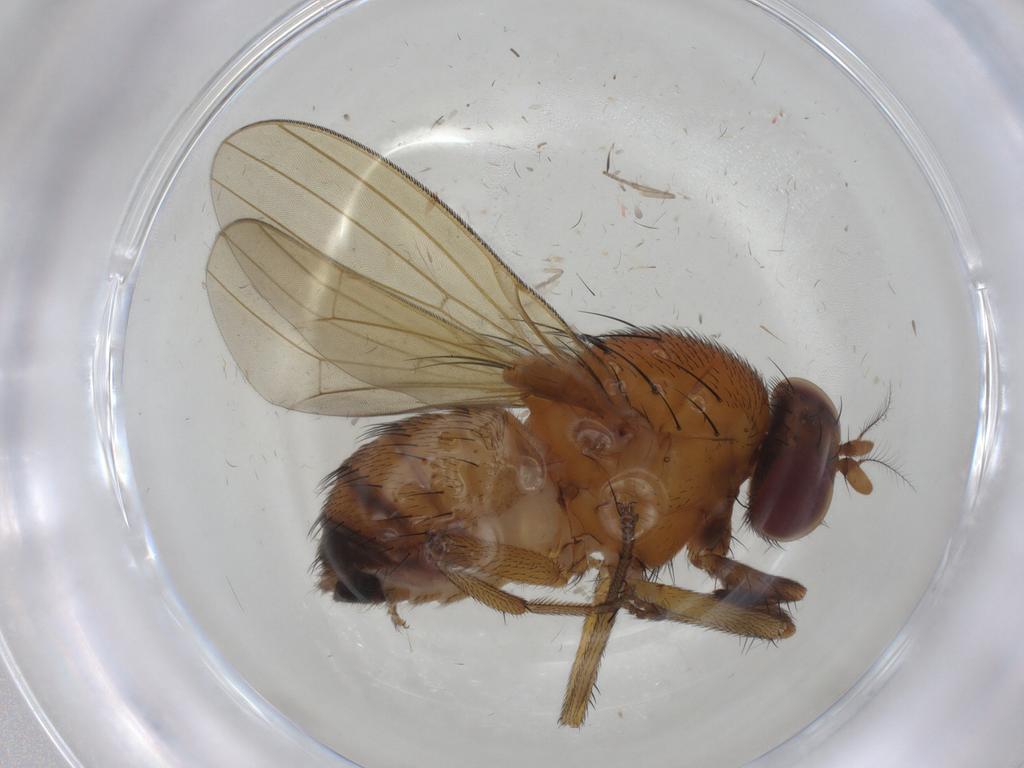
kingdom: Animalia
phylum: Arthropoda
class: Insecta
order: Diptera
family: Psychodidae
